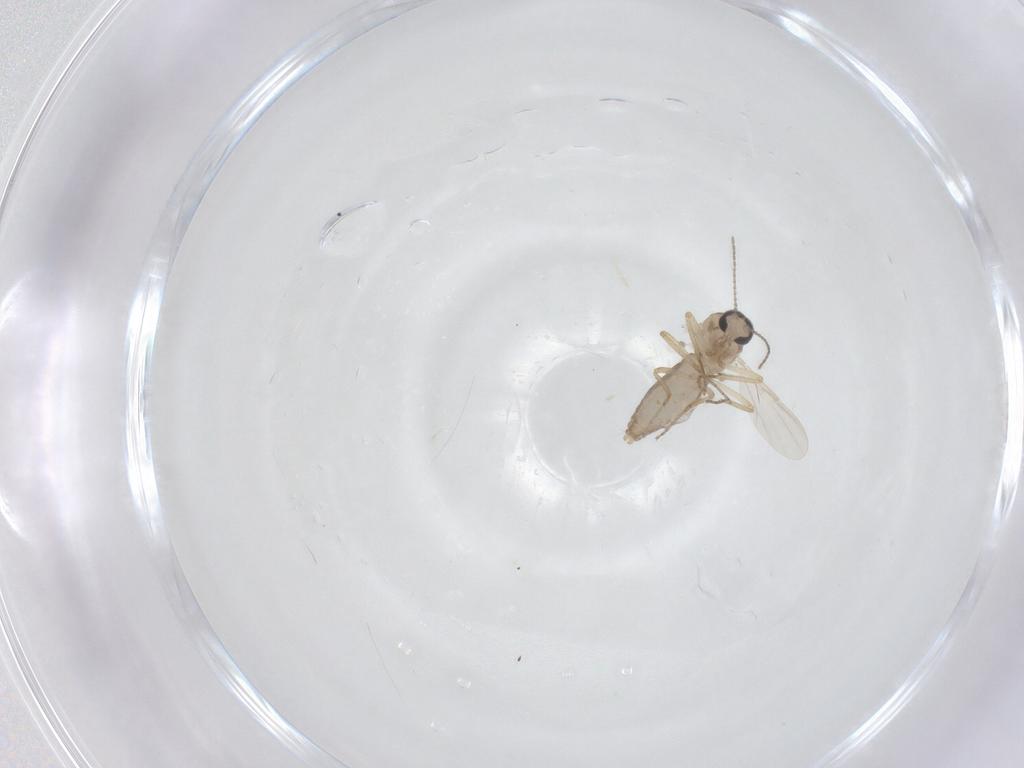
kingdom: Animalia
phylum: Arthropoda
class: Insecta
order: Diptera
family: Ceratopogonidae
